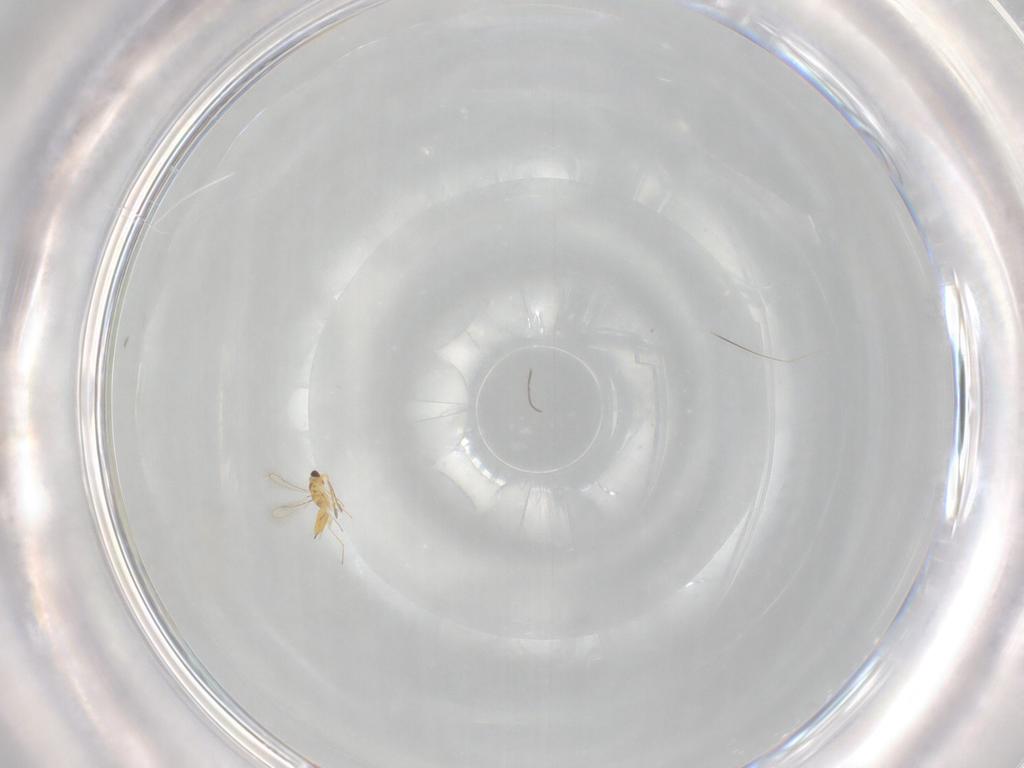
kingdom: Animalia
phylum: Arthropoda
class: Insecta
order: Hymenoptera
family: Mymaridae
